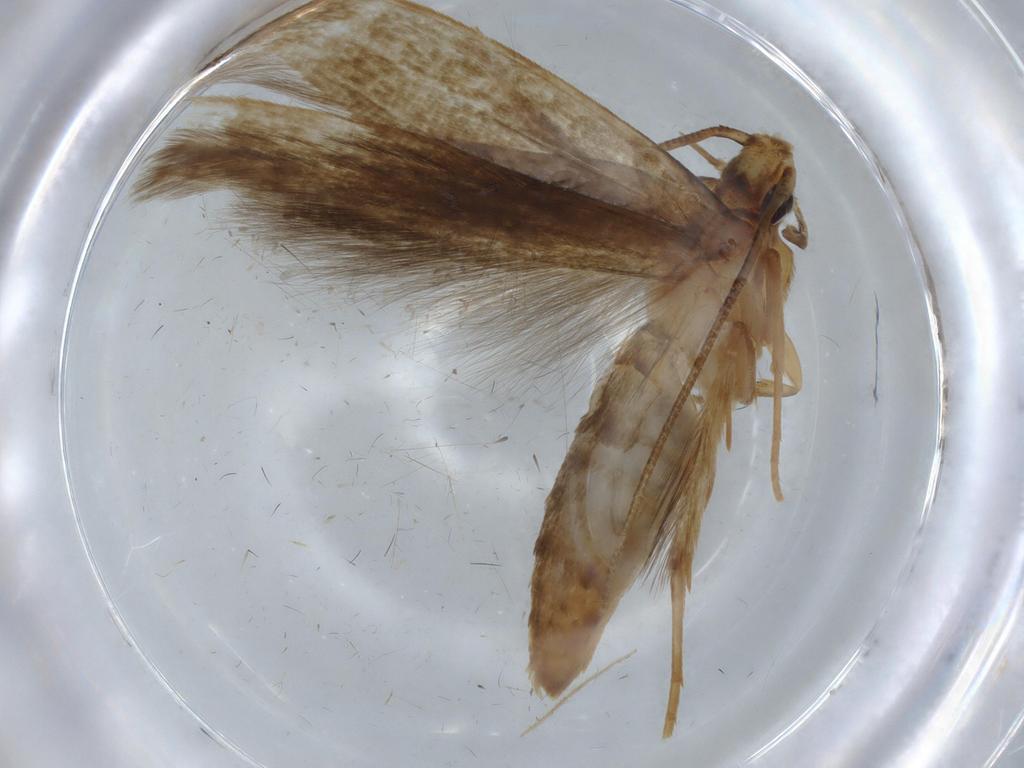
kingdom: Animalia
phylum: Arthropoda
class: Insecta
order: Lepidoptera
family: Tineidae
